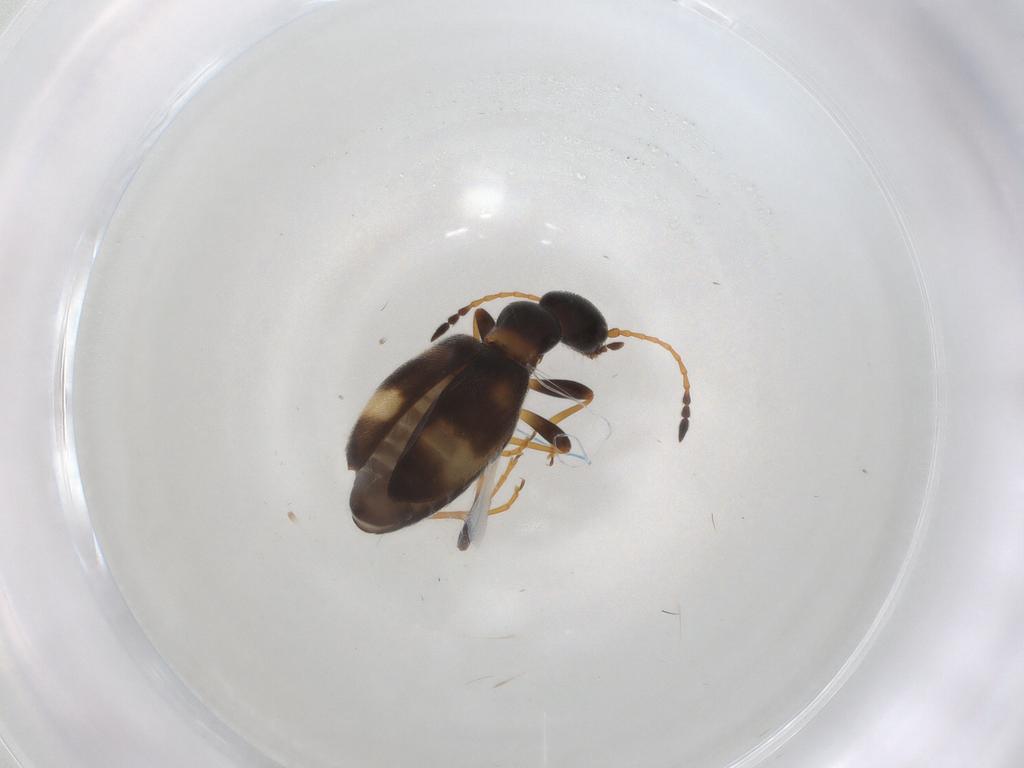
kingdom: Animalia
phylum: Arthropoda
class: Insecta
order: Coleoptera
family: Anthicidae
